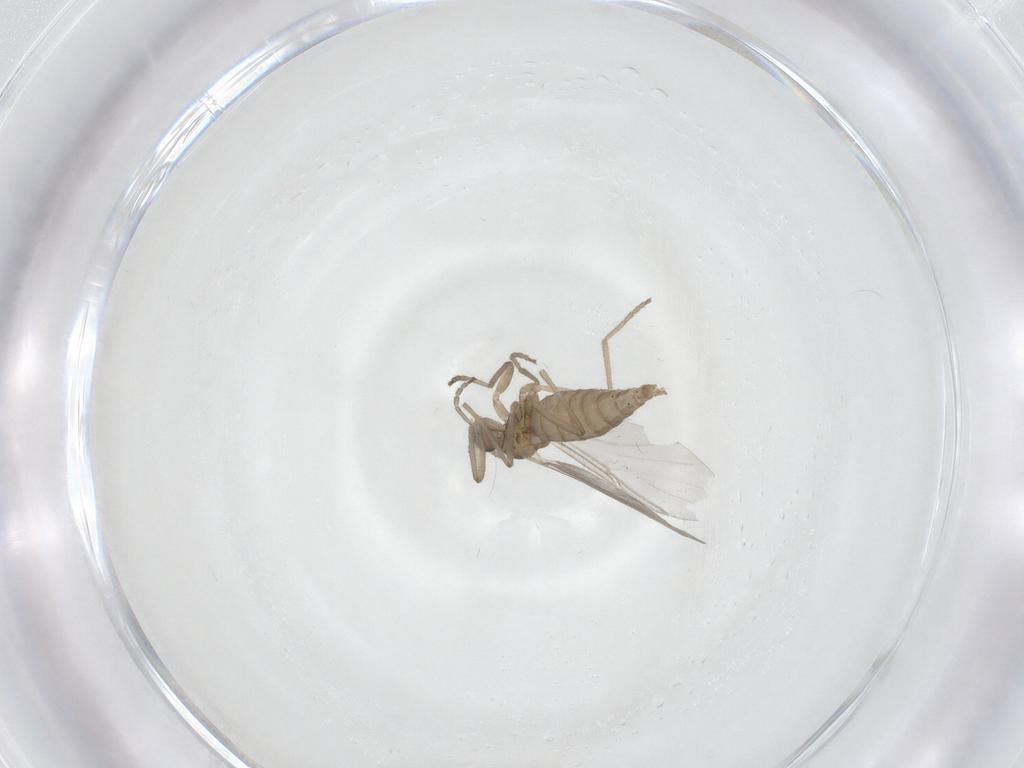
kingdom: Animalia
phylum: Arthropoda
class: Insecta
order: Diptera
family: Cecidomyiidae
